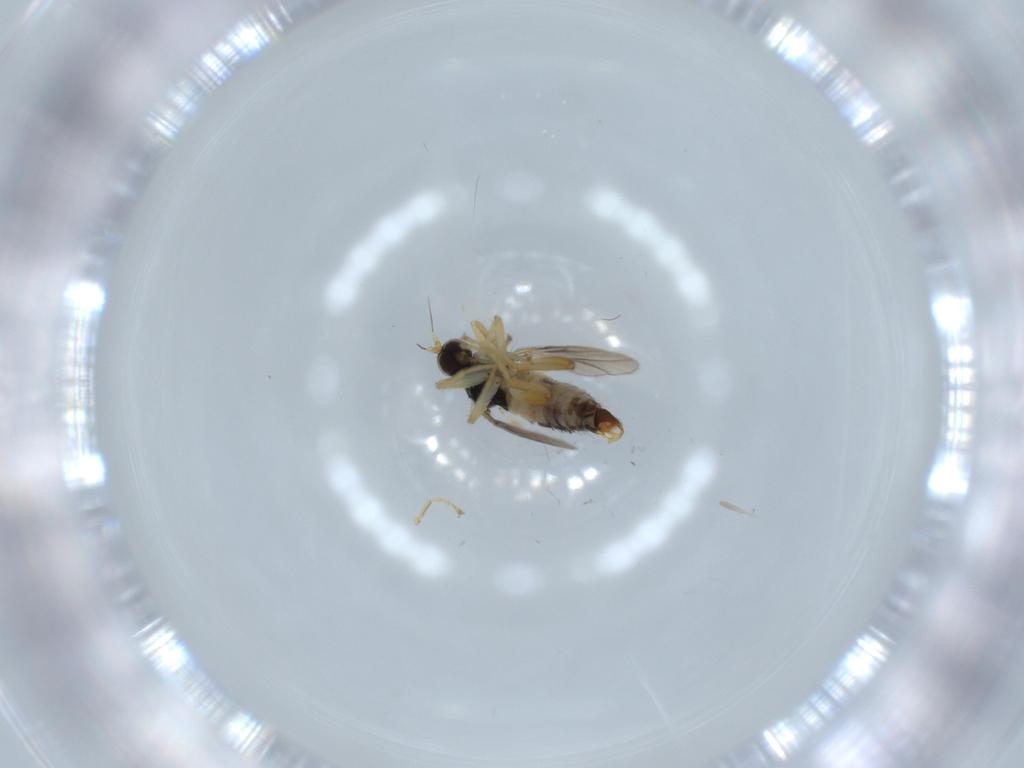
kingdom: Animalia
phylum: Arthropoda
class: Insecta
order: Diptera
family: Hybotidae
